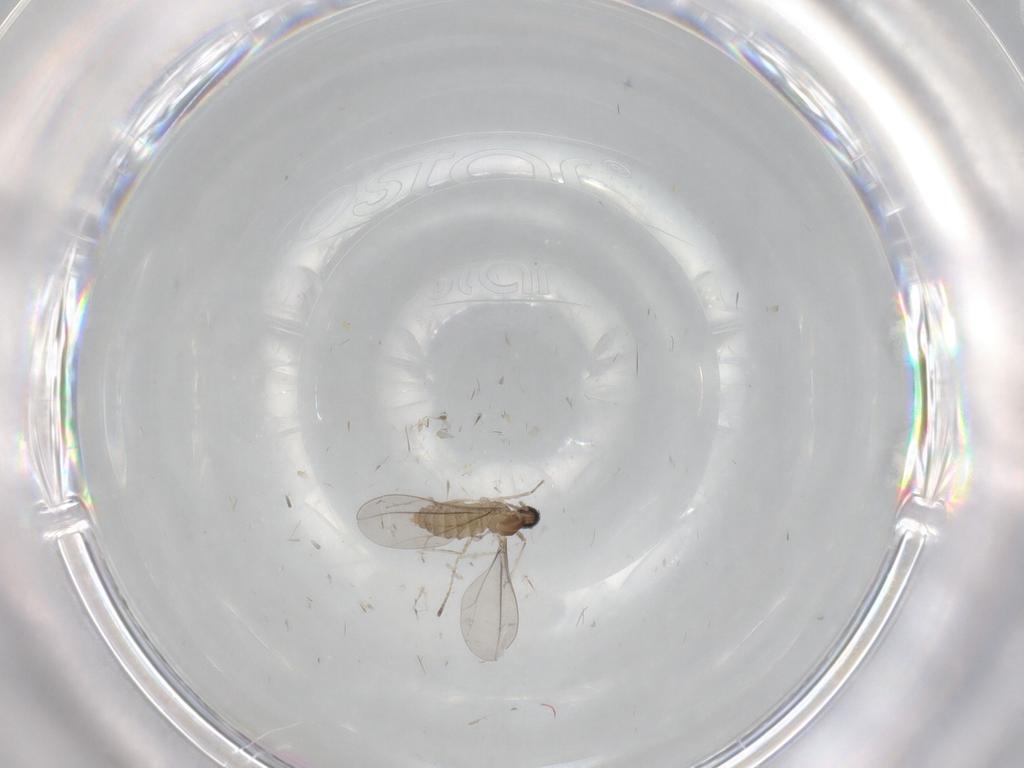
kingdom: Animalia
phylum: Arthropoda
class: Insecta
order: Diptera
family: Cecidomyiidae
